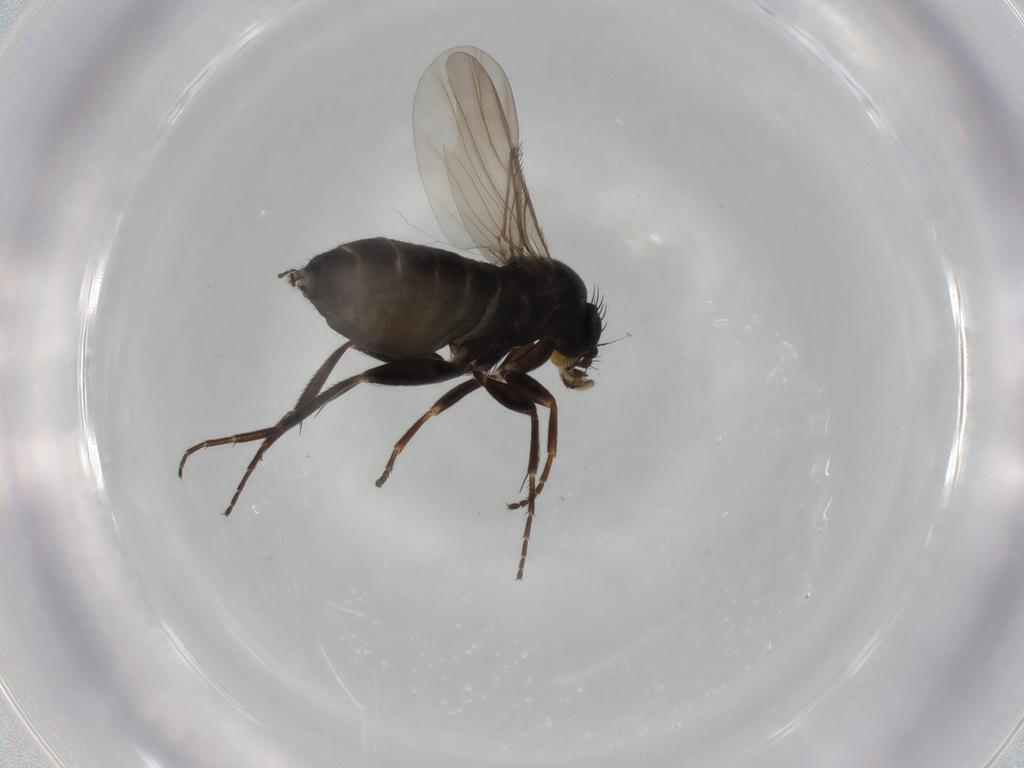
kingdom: Animalia
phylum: Arthropoda
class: Insecta
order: Diptera
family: Phoridae
